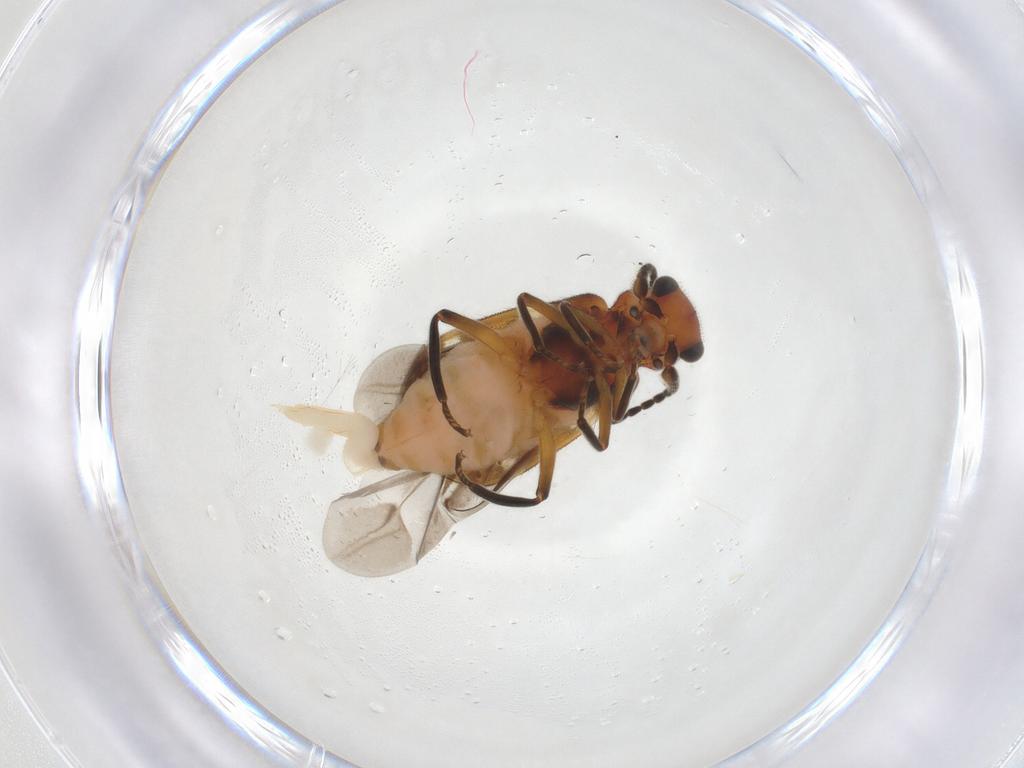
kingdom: Animalia
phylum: Arthropoda
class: Insecta
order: Coleoptera
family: Melyridae
